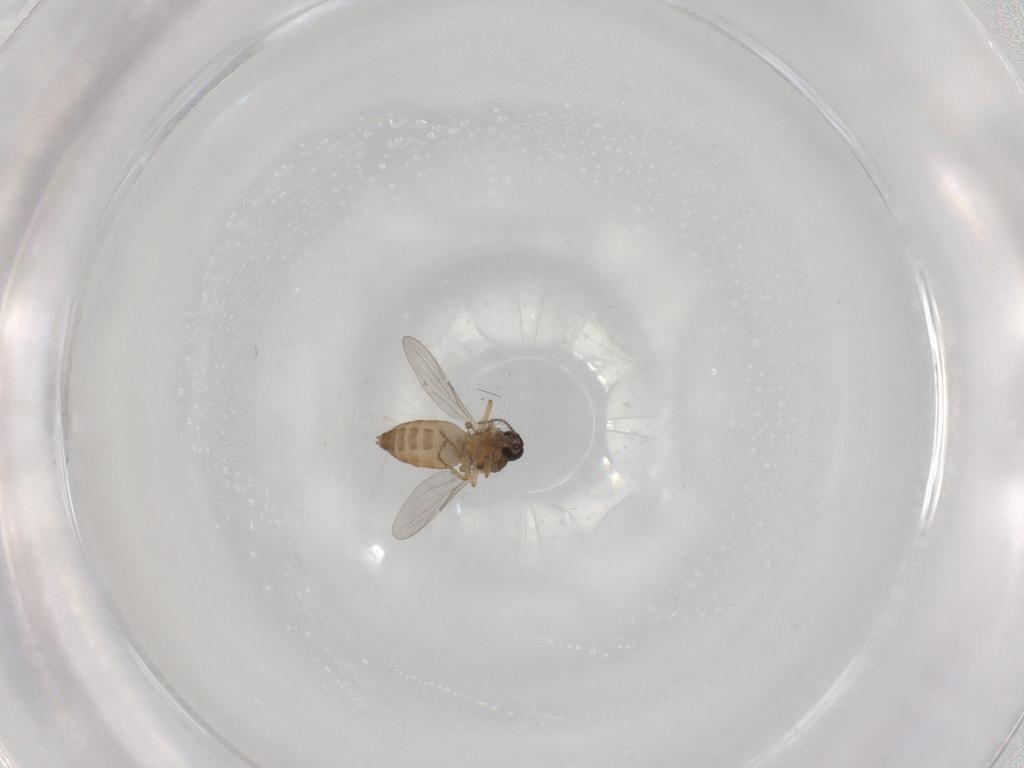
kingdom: Animalia
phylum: Arthropoda
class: Insecta
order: Diptera
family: Ceratopogonidae
